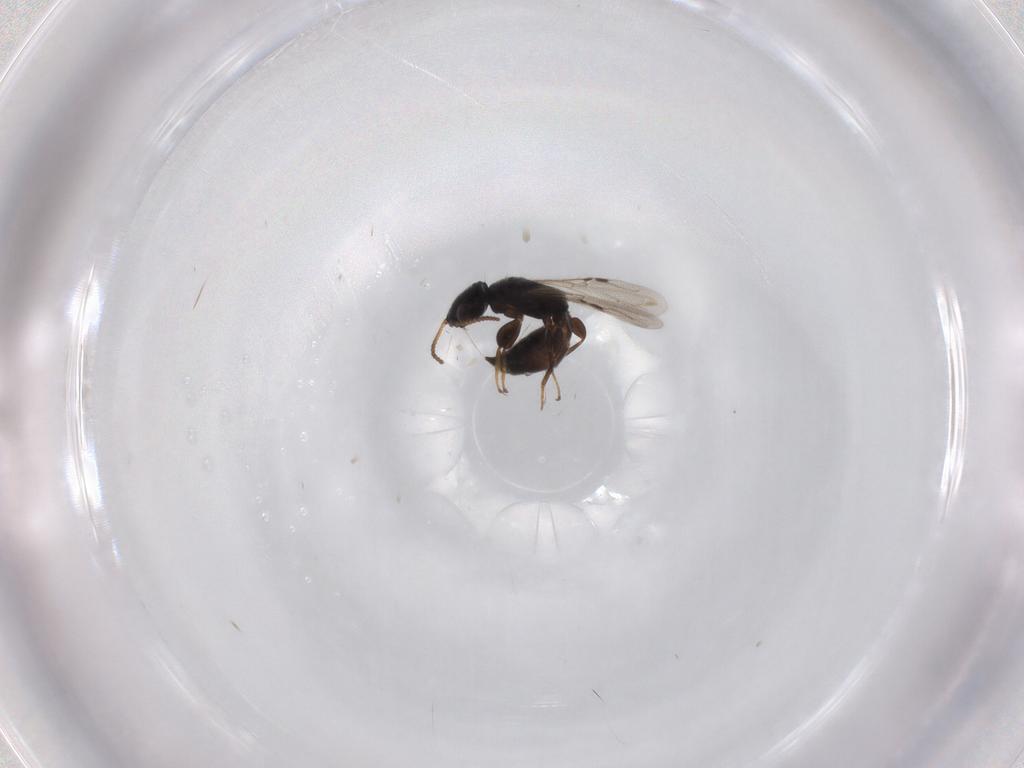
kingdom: Animalia
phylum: Arthropoda
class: Insecta
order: Hymenoptera
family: Bethylidae
